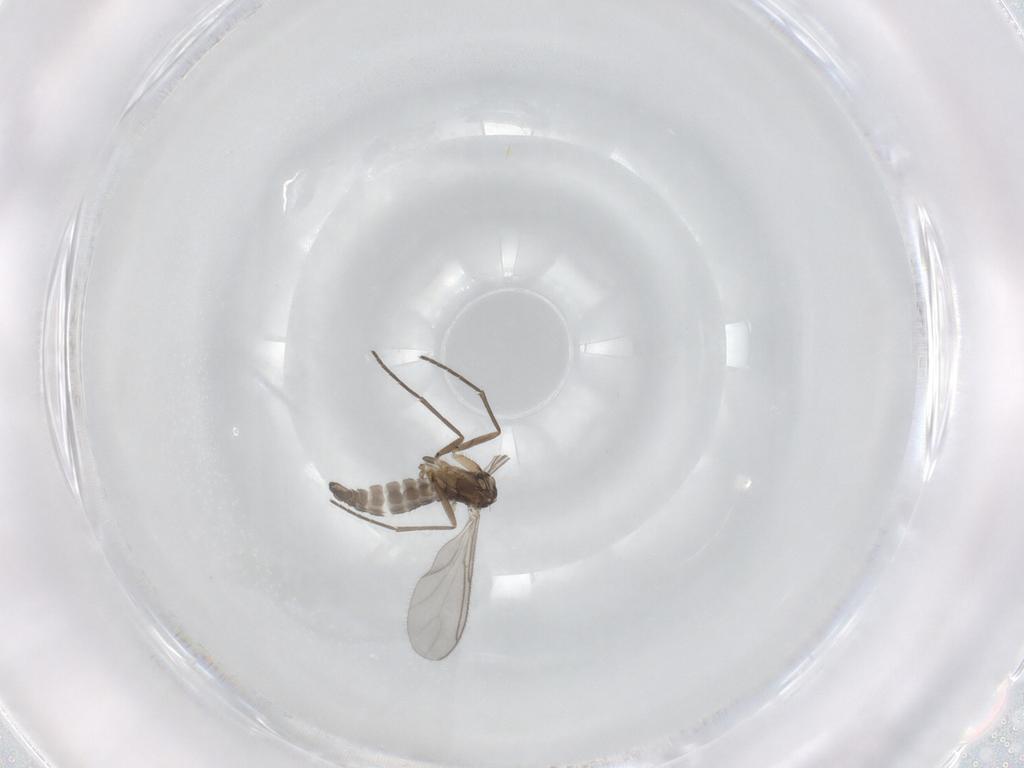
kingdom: Animalia
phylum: Arthropoda
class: Insecta
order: Diptera
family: Sciaridae
